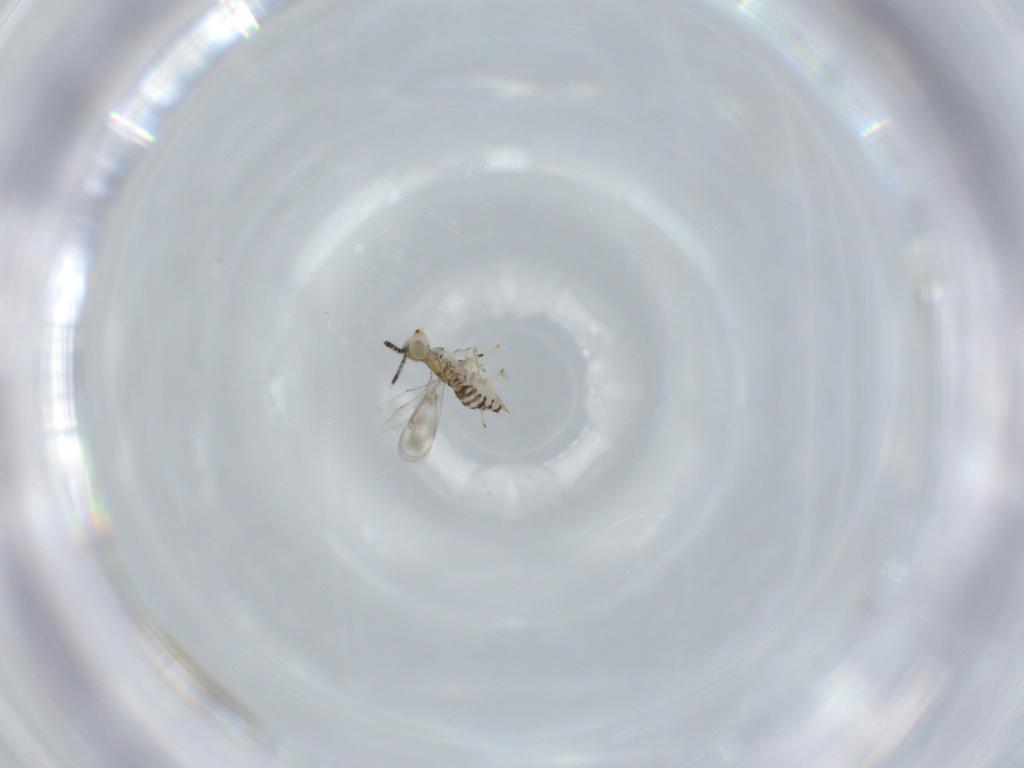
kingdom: Animalia
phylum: Arthropoda
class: Insecta
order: Hymenoptera
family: Aphelinidae
